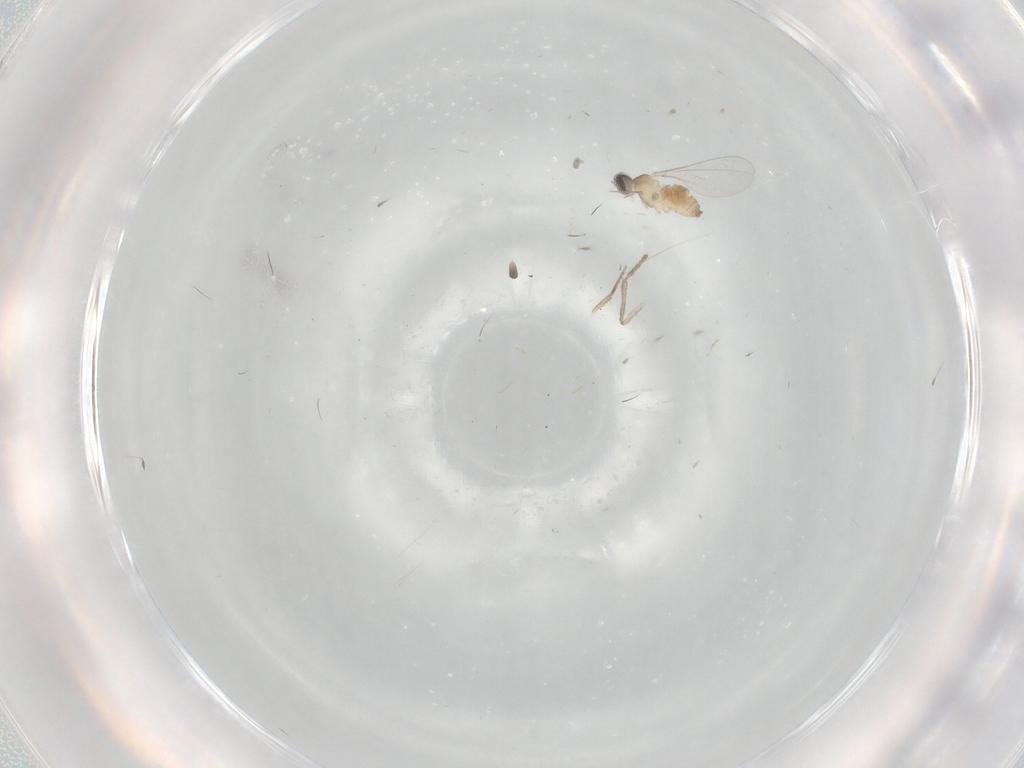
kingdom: Animalia
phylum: Arthropoda
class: Insecta
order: Diptera
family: Cecidomyiidae
